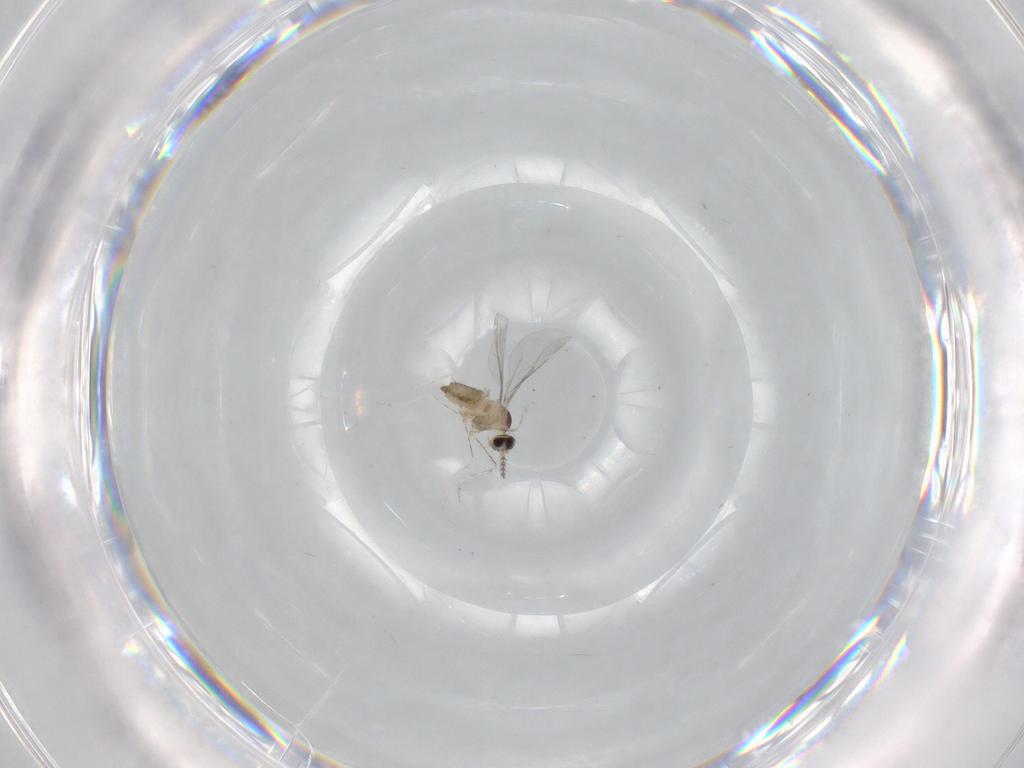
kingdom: Animalia
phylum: Arthropoda
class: Insecta
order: Diptera
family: Cecidomyiidae
